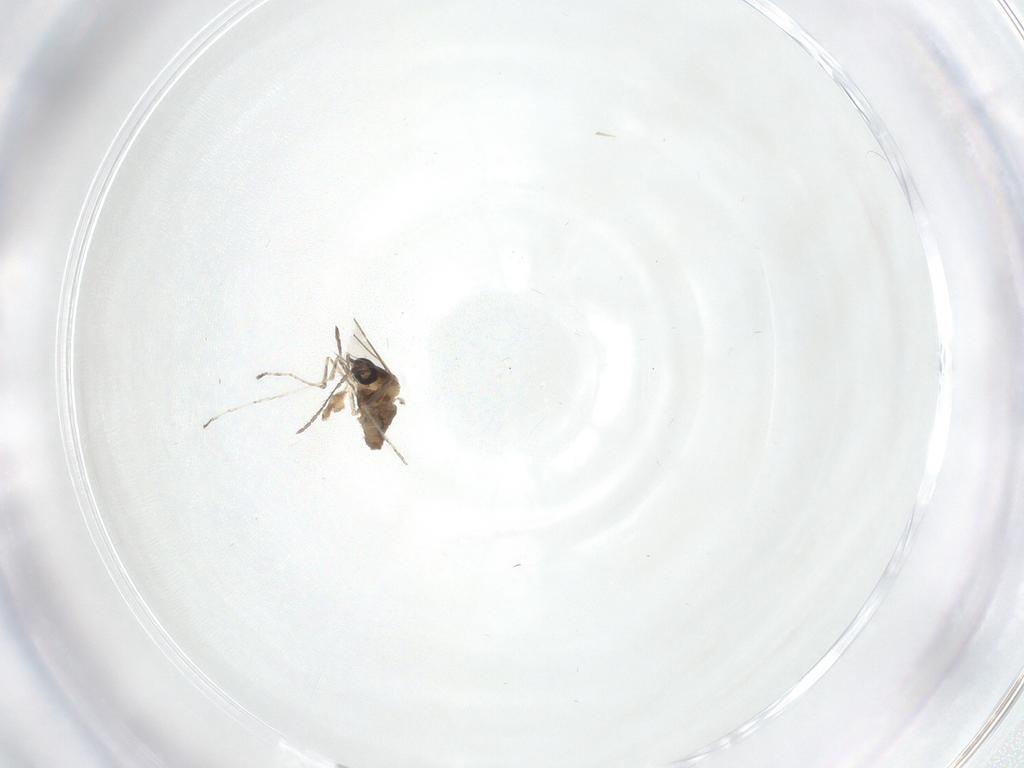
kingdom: Animalia
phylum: Arthropoda
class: Insecta
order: Diptera
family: Cecidomyiidae
